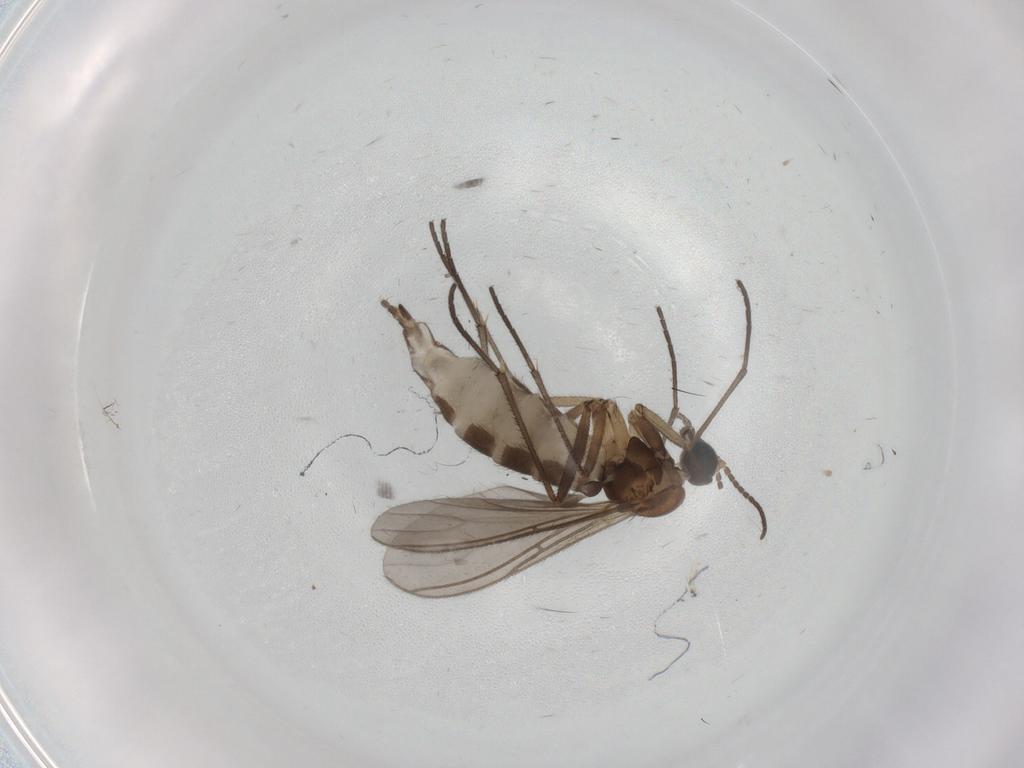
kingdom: Animalia
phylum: Arthropoda
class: Insecta
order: Diptera
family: Sciaridae
